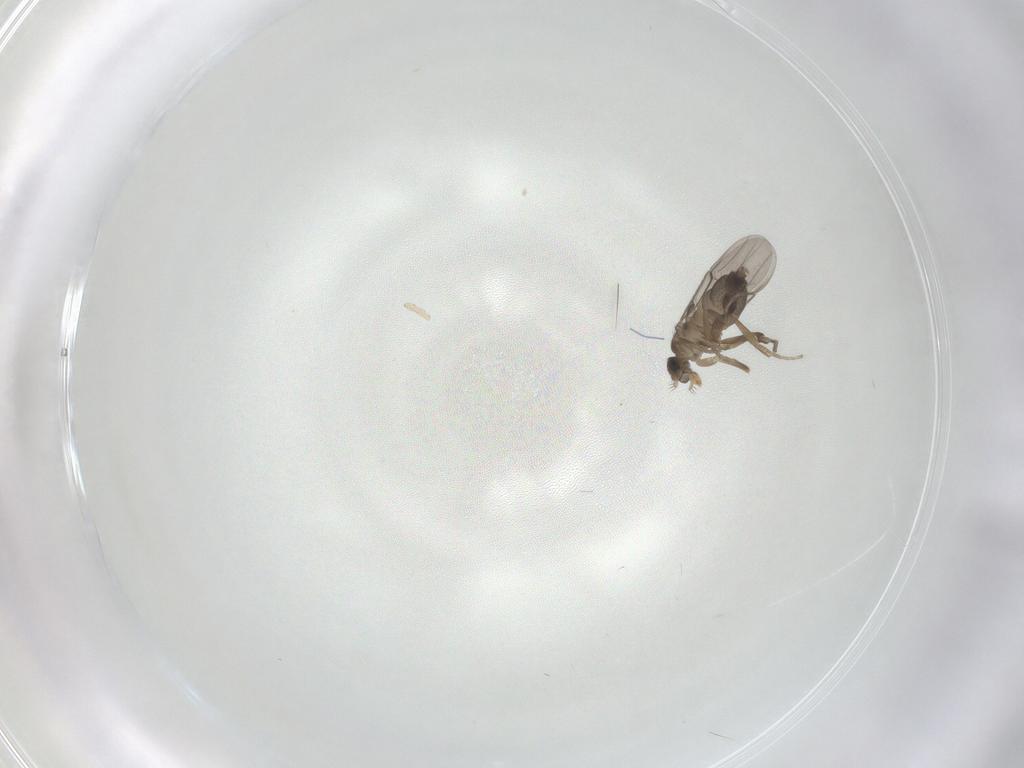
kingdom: Animalia
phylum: Arthropoda
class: Insecta
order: Diptera
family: Phoridae
